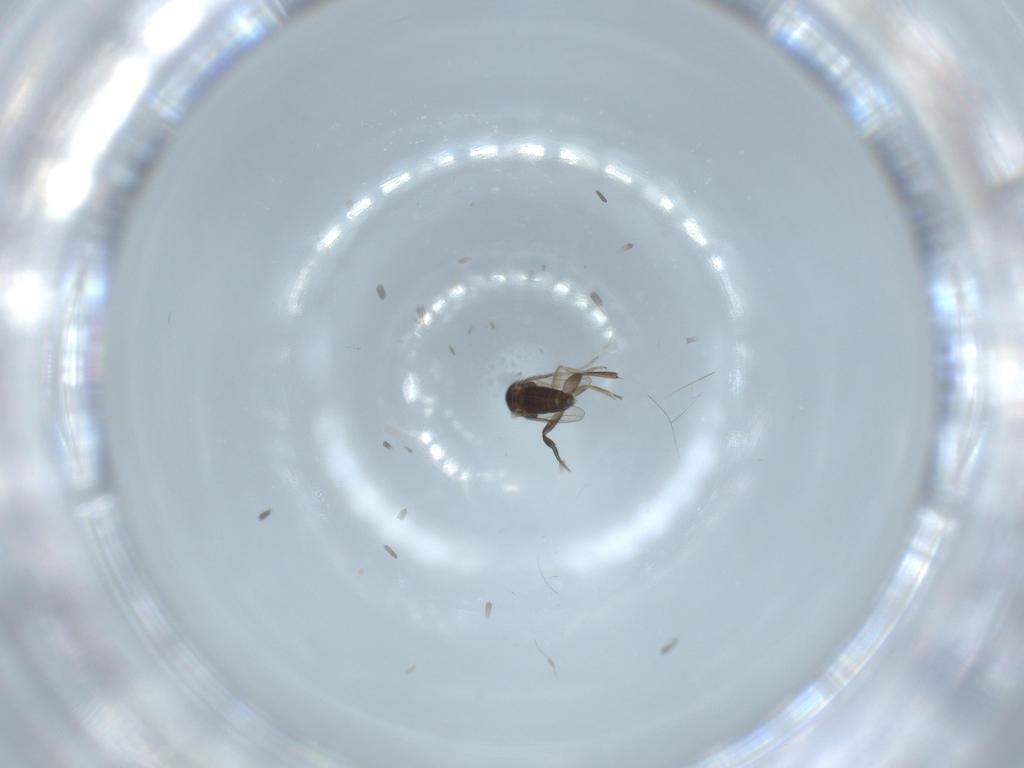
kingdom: Animalia
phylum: Arthropoda
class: Insecta
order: Diptera
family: Phoridae
